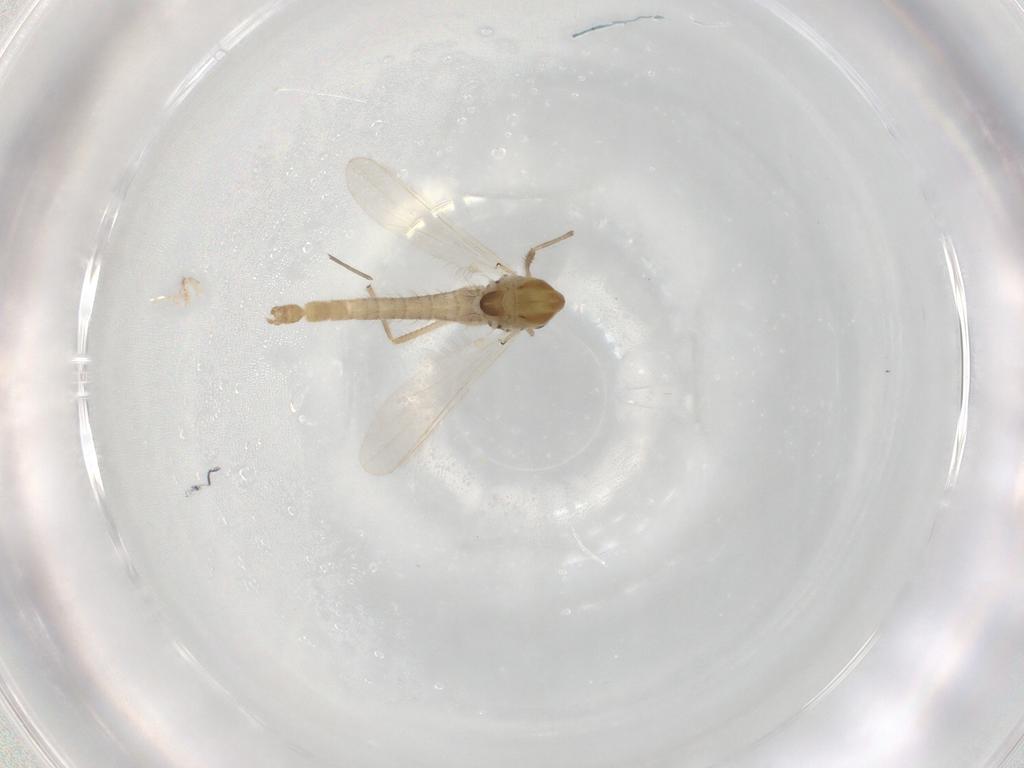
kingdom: Animalia
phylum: Arthropoda
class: Insecta
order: Diptera
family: Chironomidae
